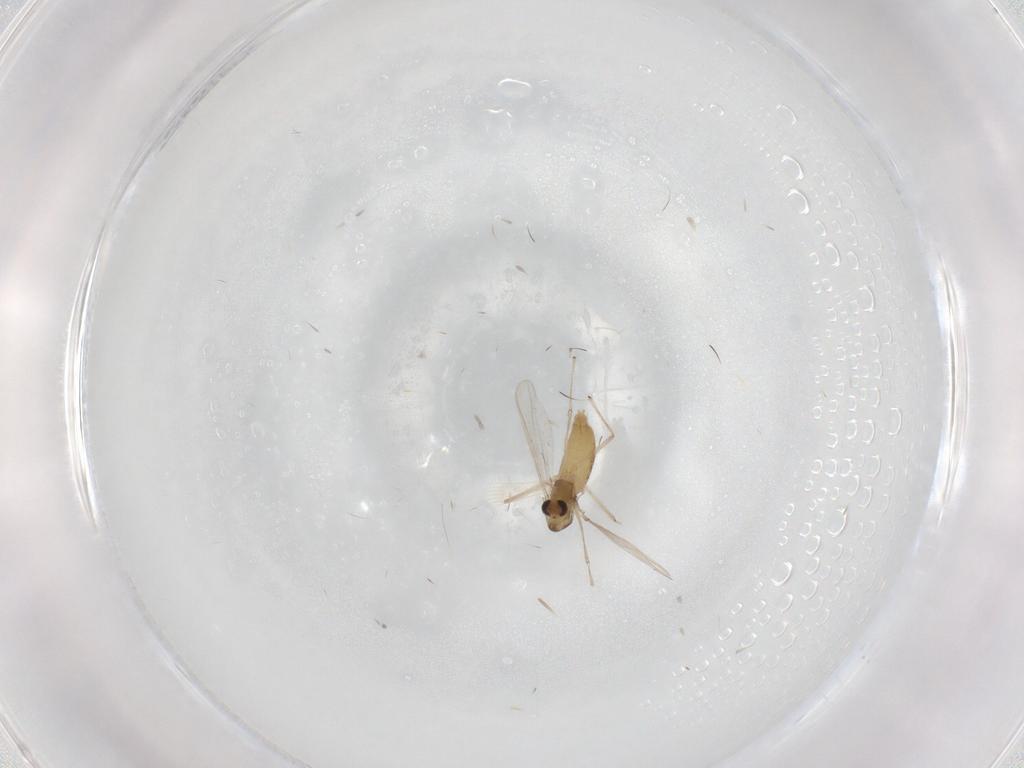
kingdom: Animalia
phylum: Arthropoda
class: Insecta
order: Diptera
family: Chironomidae
